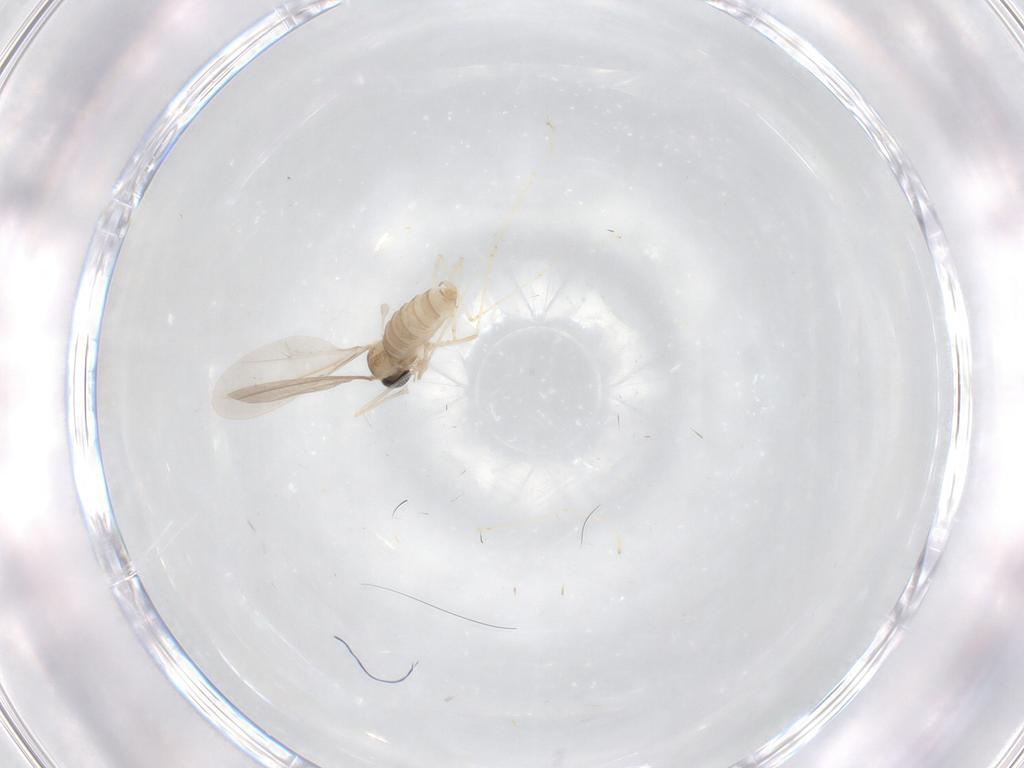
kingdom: Animalia
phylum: Arthropoda
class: Insecta
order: Diptera
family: Cecidomyiidae
